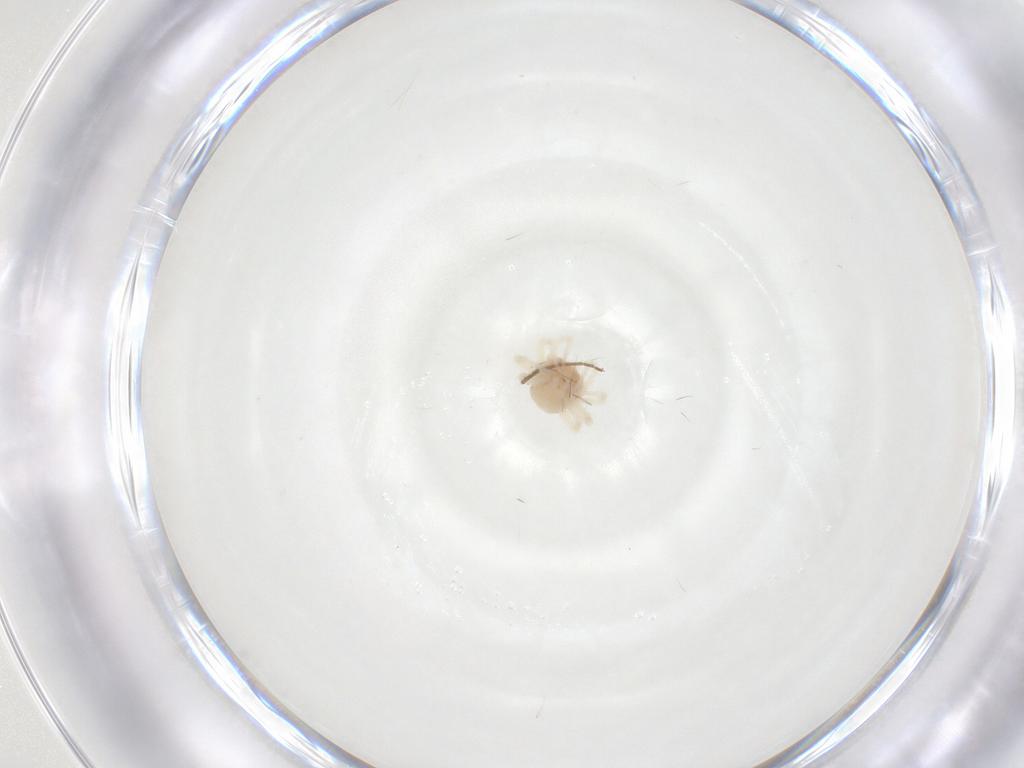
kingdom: Animalia
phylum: Arthropoda
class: Arachnida
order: Trombidiformes
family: Anystidae
